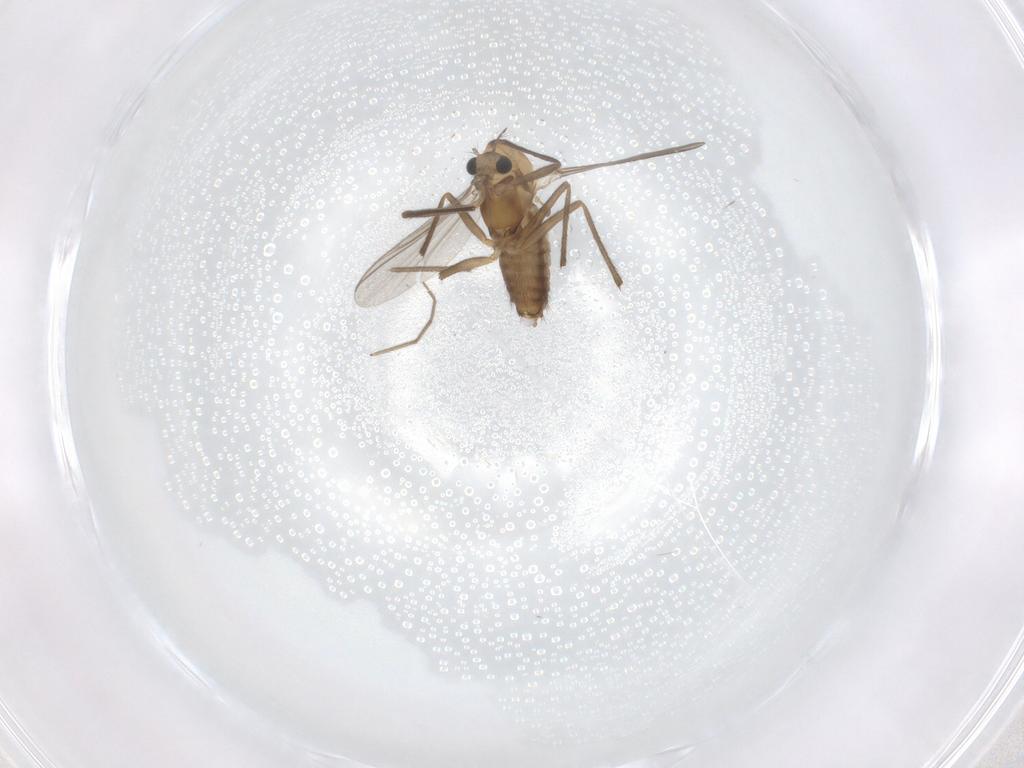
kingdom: Animalia
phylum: Arthropoda
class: Insecta
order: Diptera
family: Chironomidae
